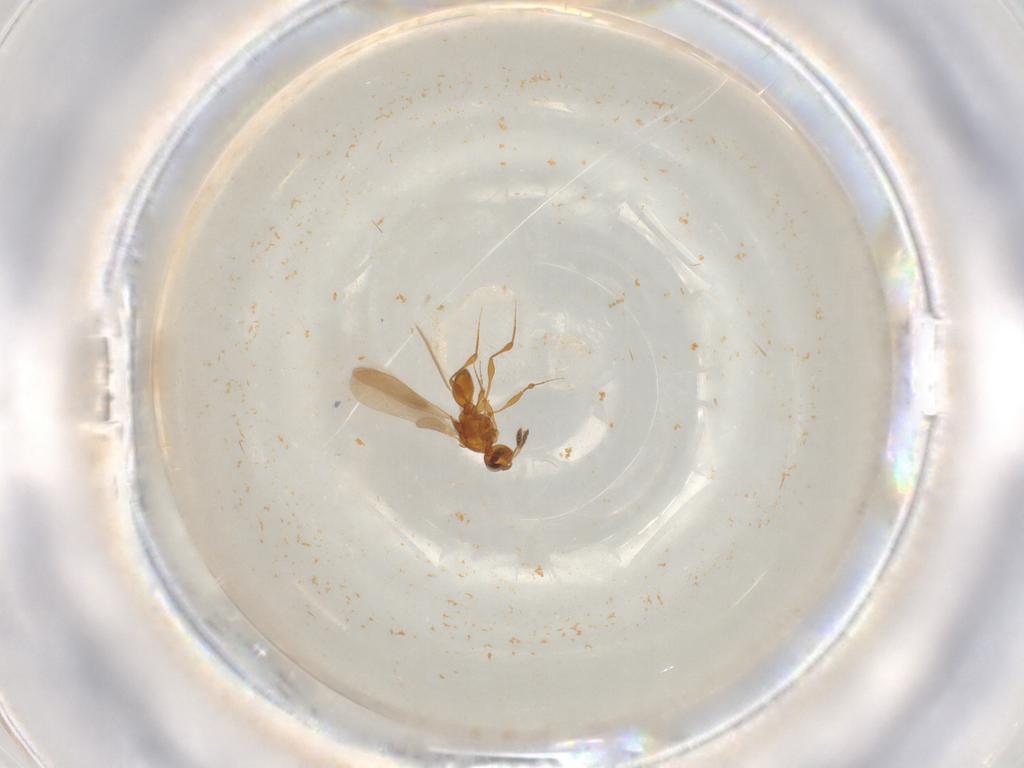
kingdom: Animalia
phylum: Arthropoda
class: Insecta
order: Hymenoptera
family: Platygastridae
